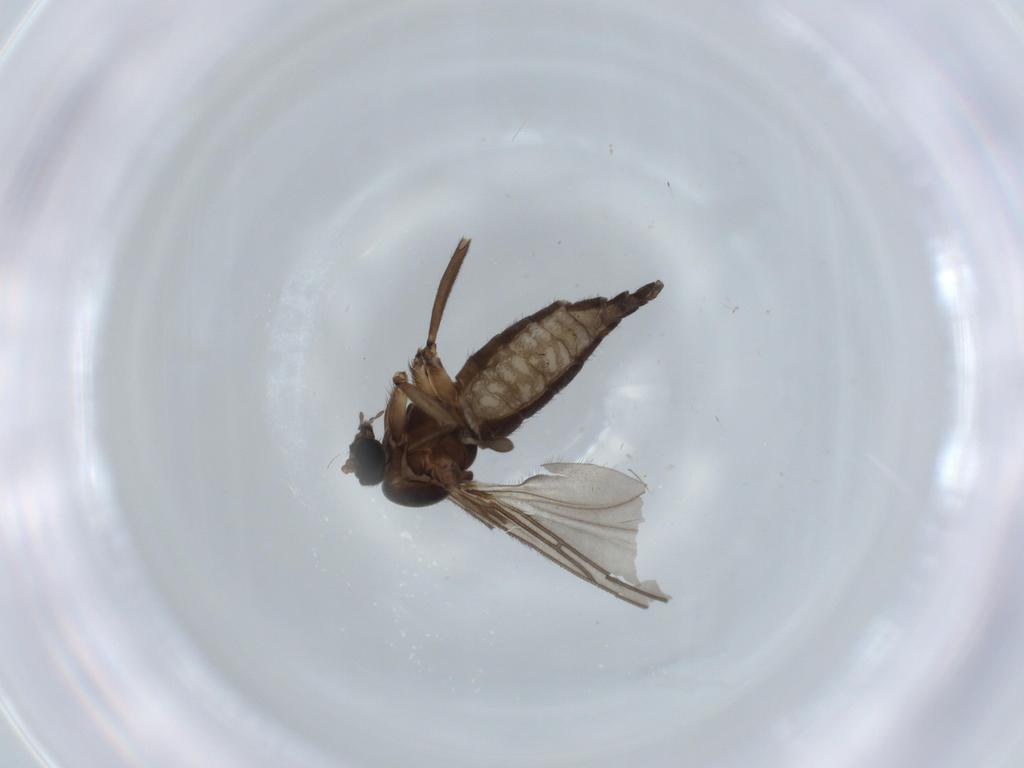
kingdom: Animalia
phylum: Arthropoda
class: Insecta
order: Diptera
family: Sciaridae
